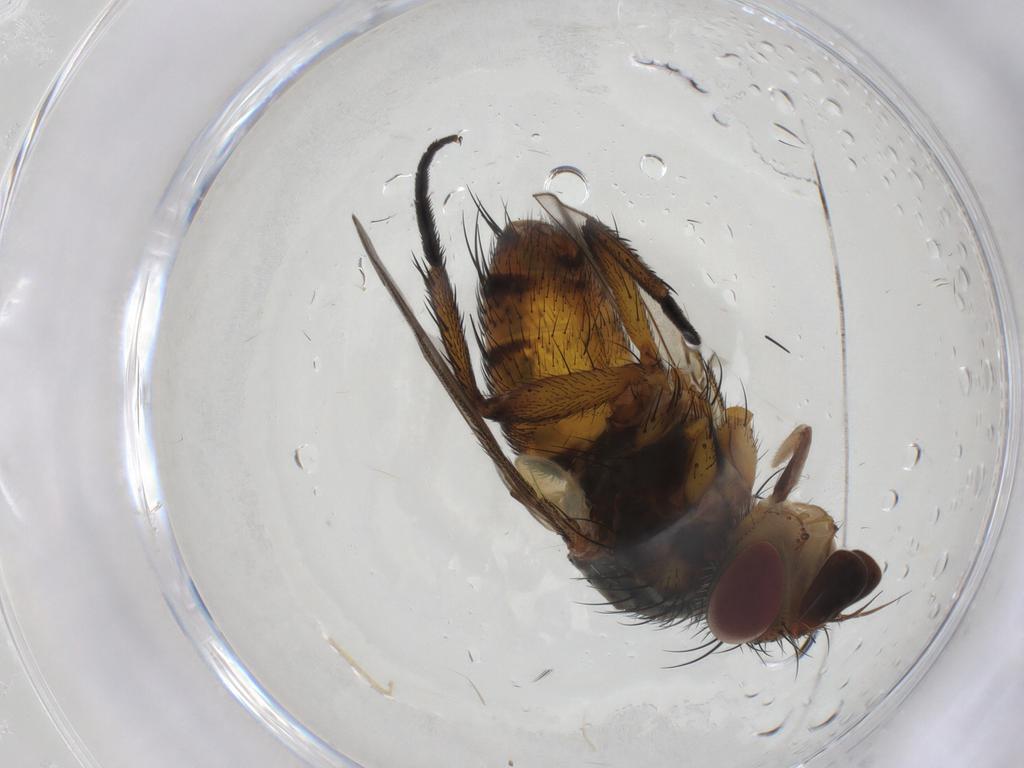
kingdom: Animalia
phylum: Arthropoda
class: Insecta
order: Diptera
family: Tachinidae
